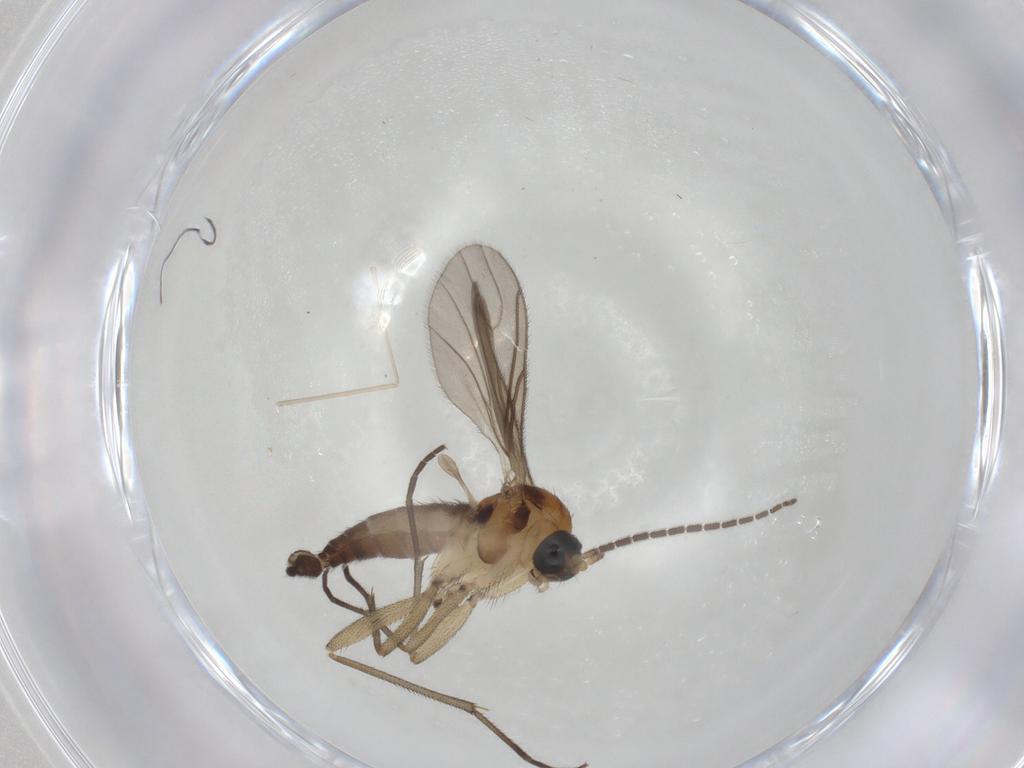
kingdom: Animalia
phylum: Arthropoda
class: Insecta
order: Diptera
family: Sciaridae
